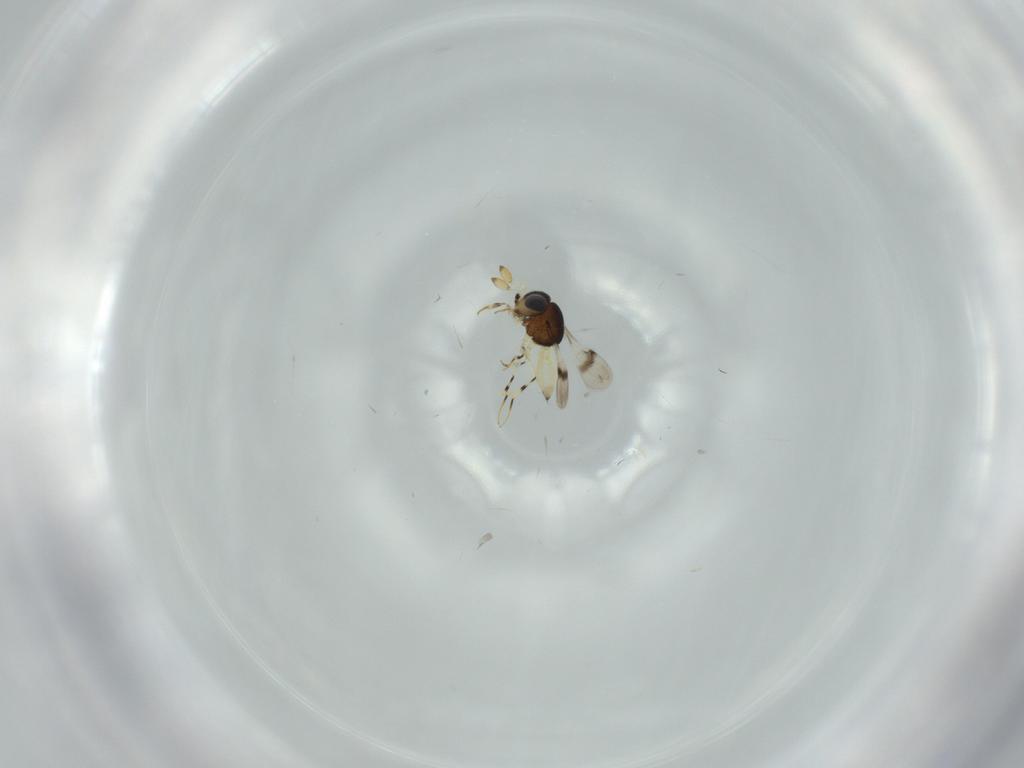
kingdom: Animalia
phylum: Arthropoda
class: Insecta
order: Hymenoptera
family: Scelionidae
